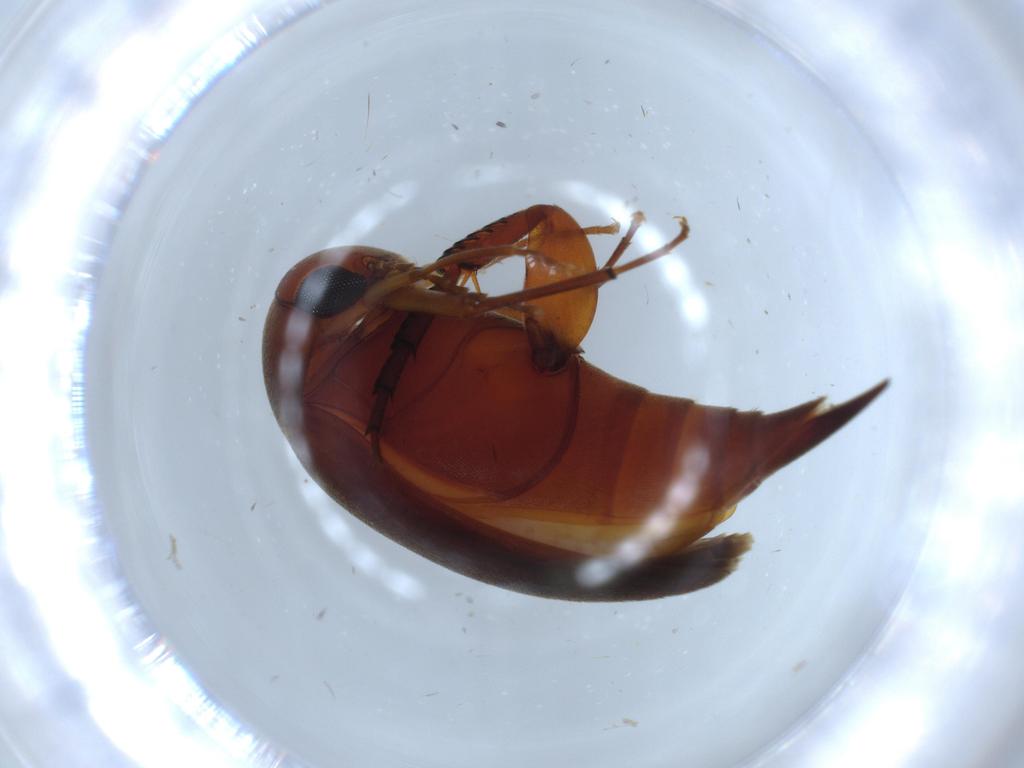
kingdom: Animalia
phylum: Arthropoda
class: Insecta
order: Coleoptera
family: Mordellidae
